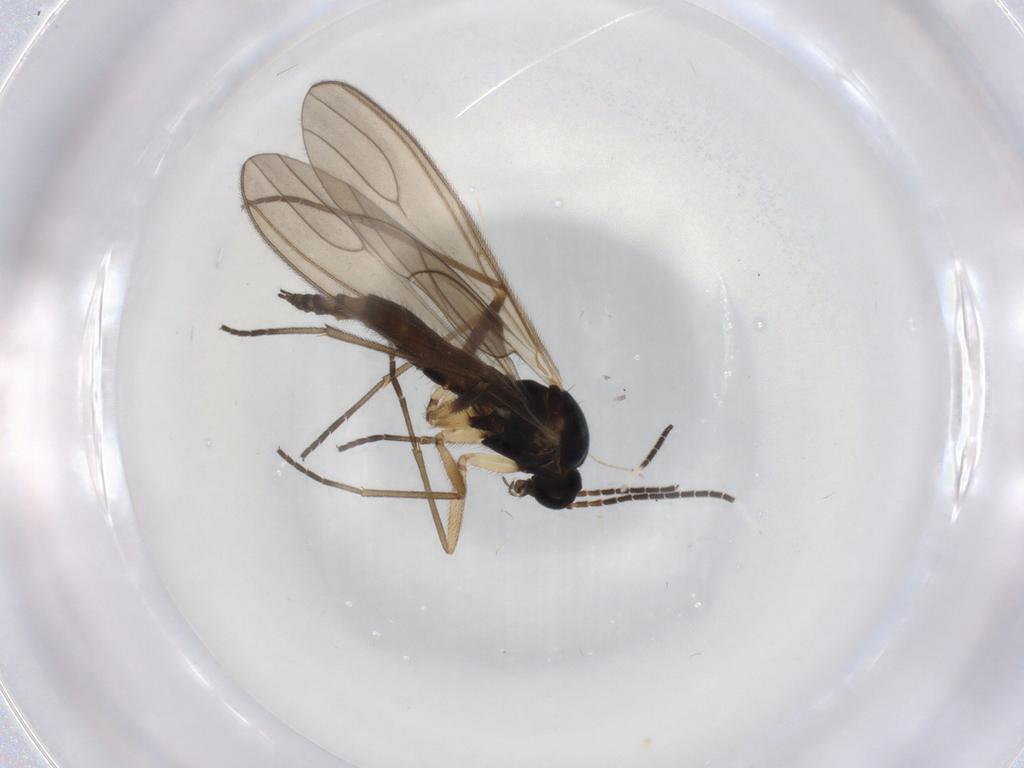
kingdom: Animalia
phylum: Arthropoda
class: Insecta
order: Diptera
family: Sciaridae
